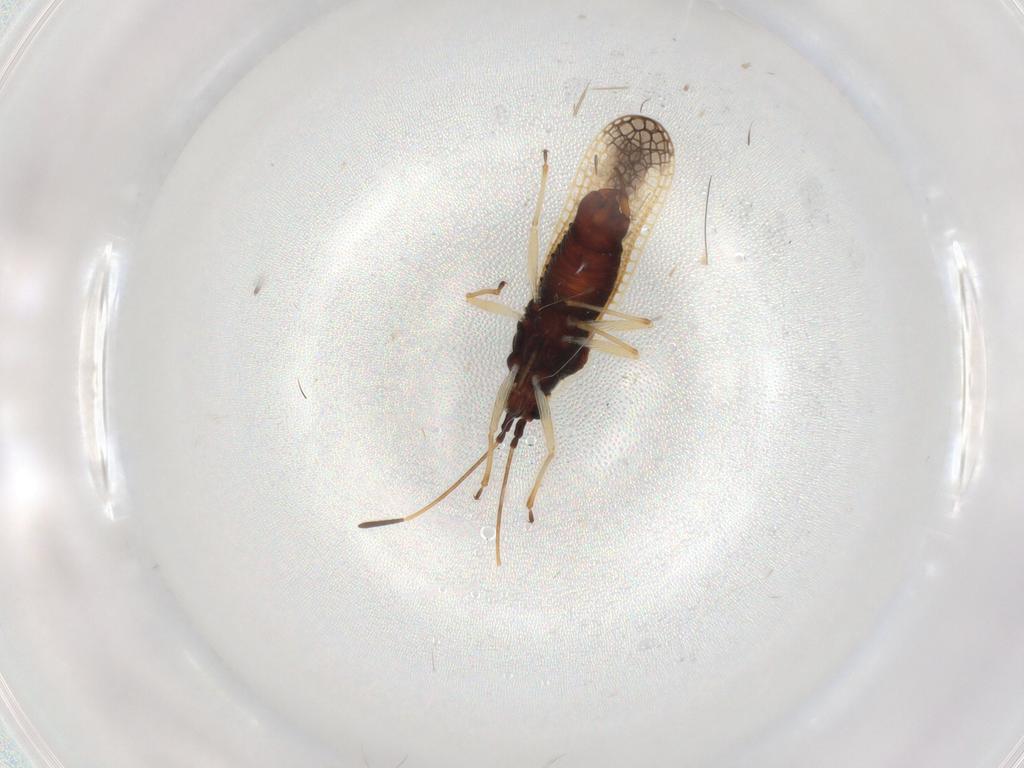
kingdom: Animalia
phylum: Arthropoda
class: Insecta
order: Hemiptera
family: Tingidae
